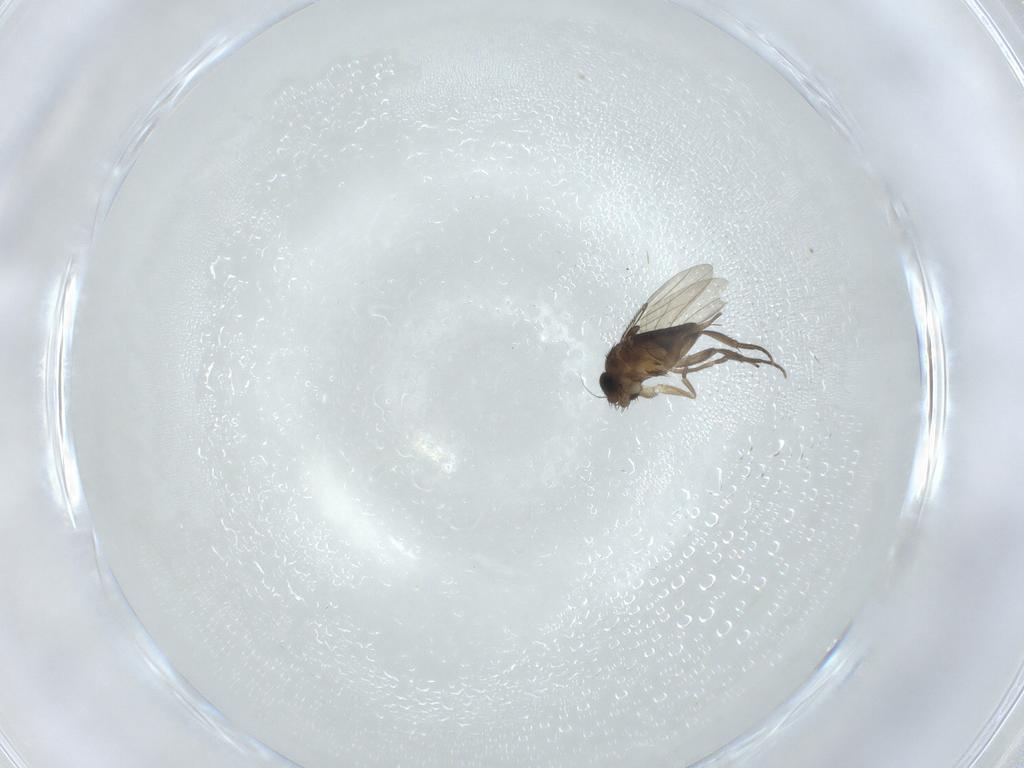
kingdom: Animalia
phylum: Arthropoda
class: Insecta
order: Diptera
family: Phoridae
